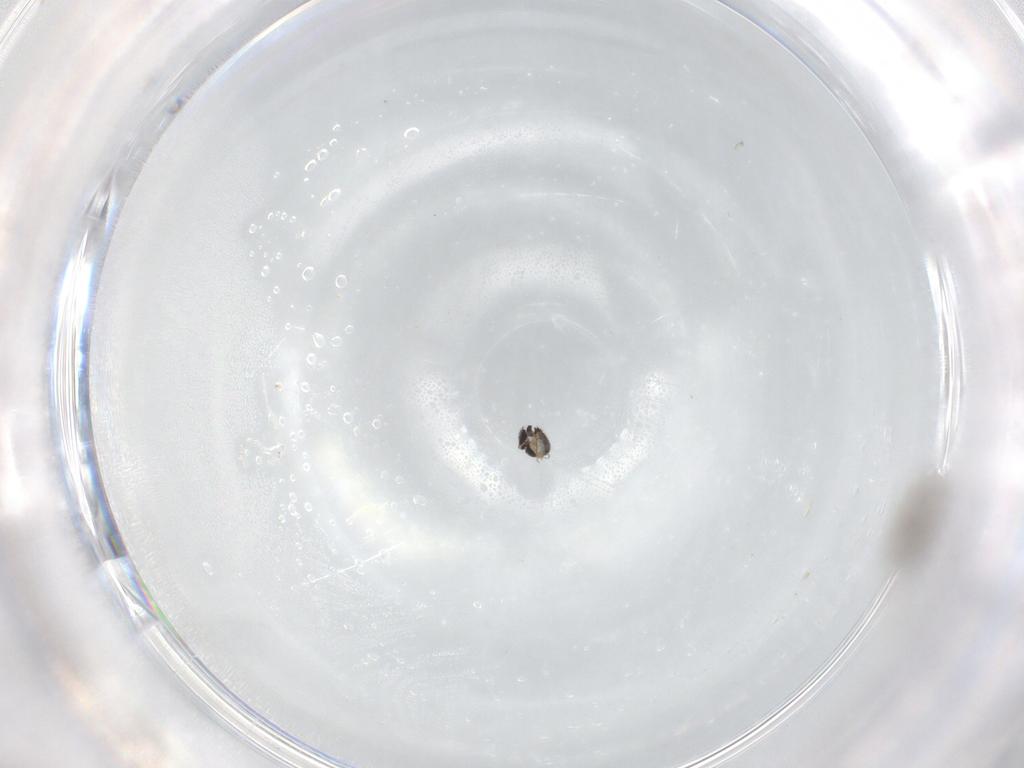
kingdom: Animalia
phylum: Arthropoda
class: Insecta
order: Diptera
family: Cecidomyiidae
